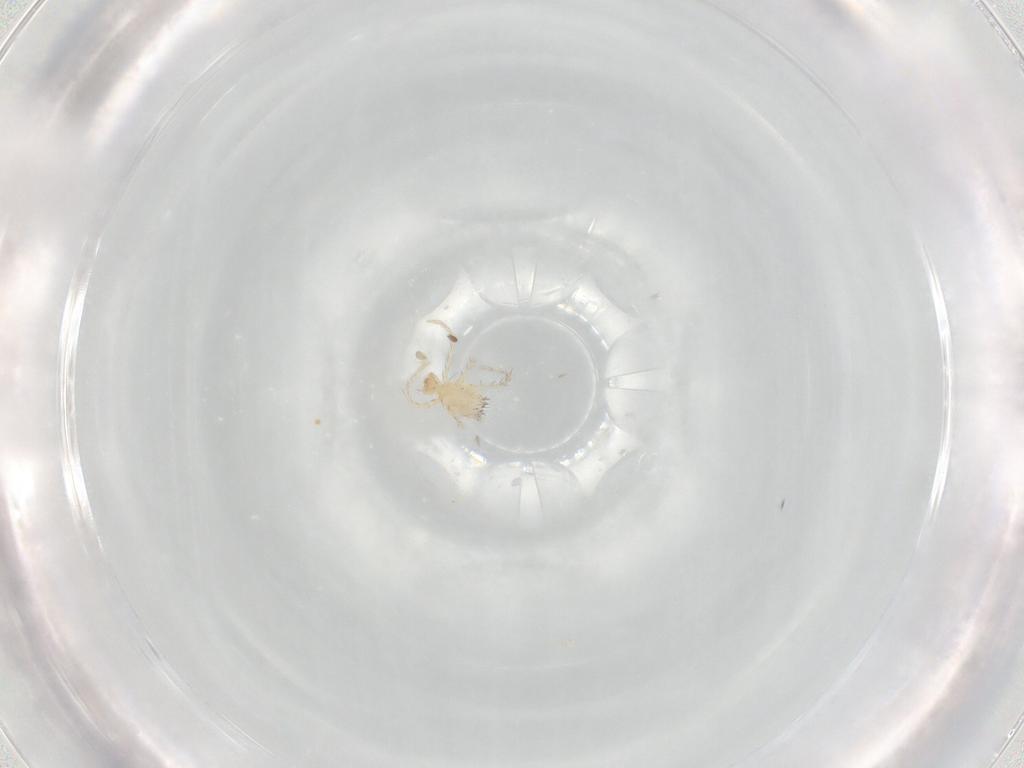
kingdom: Animalia
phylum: Arthropoda
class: Arachnida
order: Trombidiformes
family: Erythraeidae
